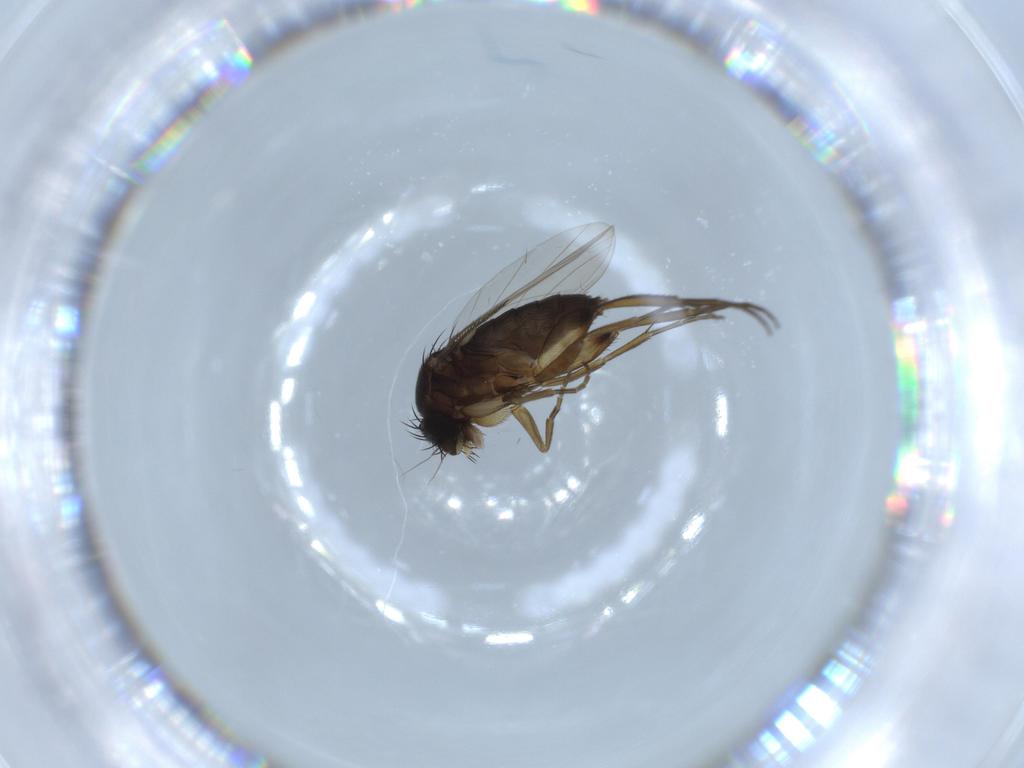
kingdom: Animalia
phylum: Arthropoda
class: Insecta
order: Diptera
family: Phoridae
